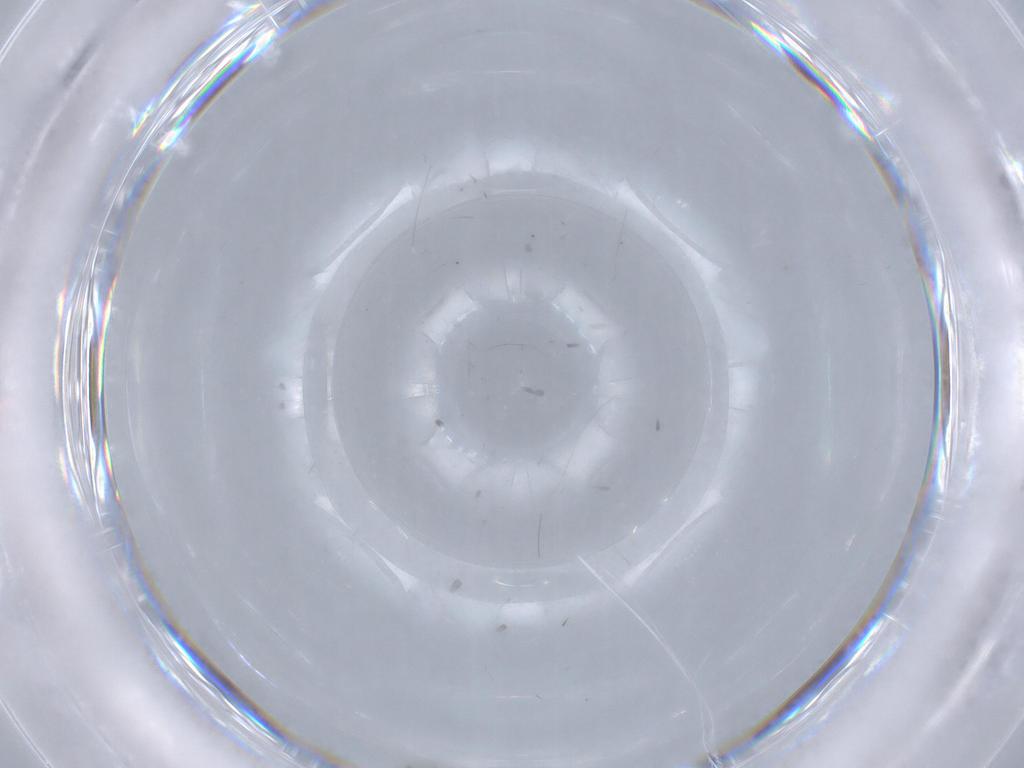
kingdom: Animalia
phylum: Arthropoda
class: Insecta
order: Diptera
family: Psychodidae
